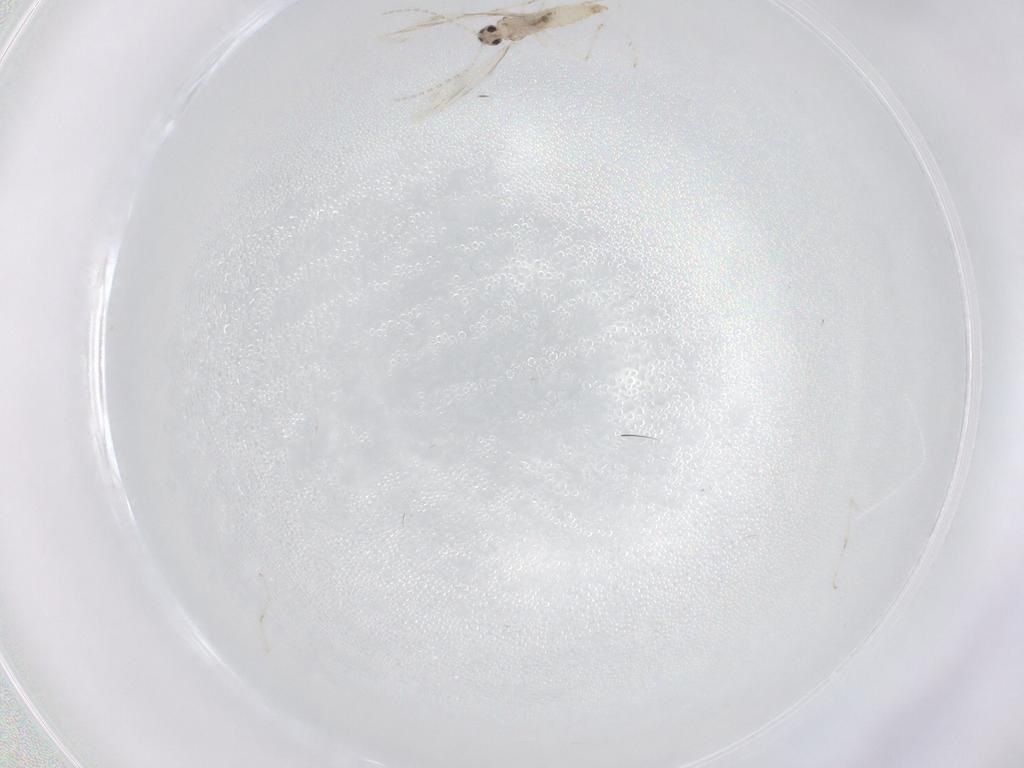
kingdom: Animalia
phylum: Arthropoda
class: Insecta
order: Diptera
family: Cecidomyiidae
